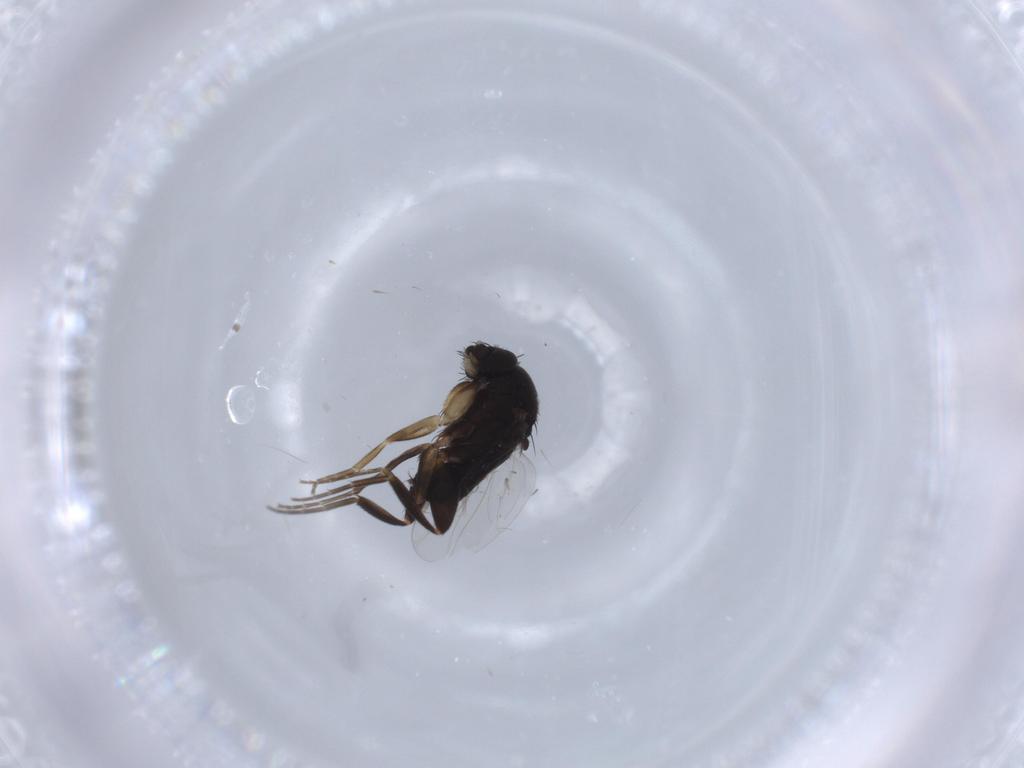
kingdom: Animalia
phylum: Arthropoda
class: Insecta
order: Diptera
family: Phoridae
